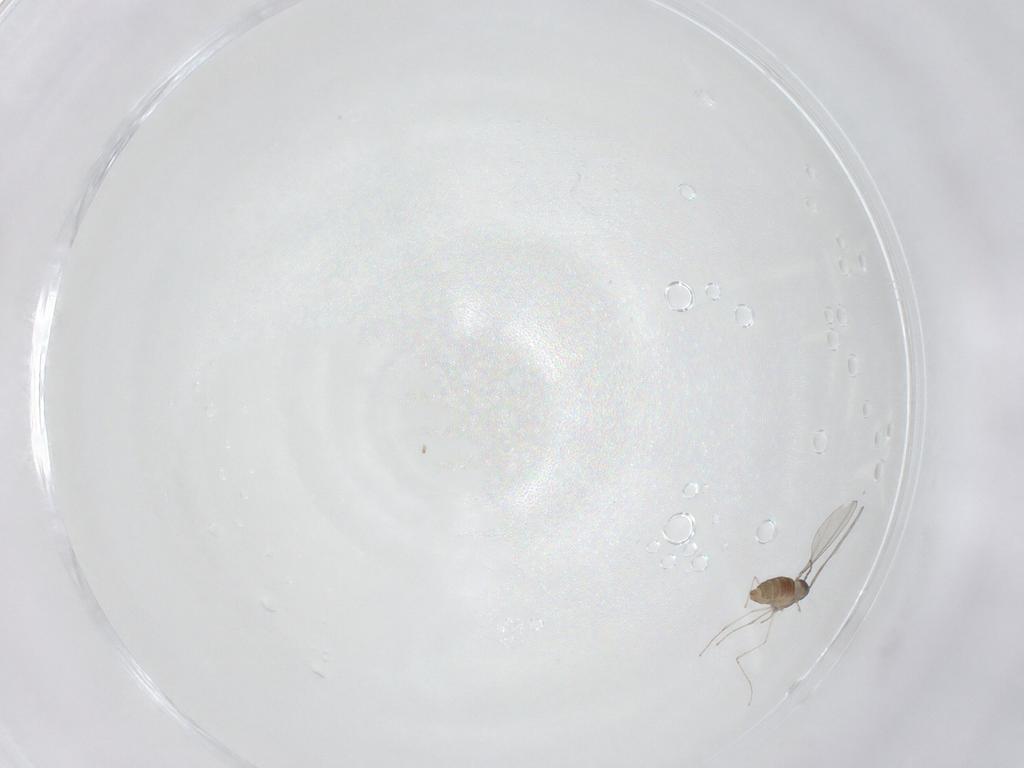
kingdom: Animalia
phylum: Arthropoda
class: Insecta
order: Diptera
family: Cecidomyiidae
